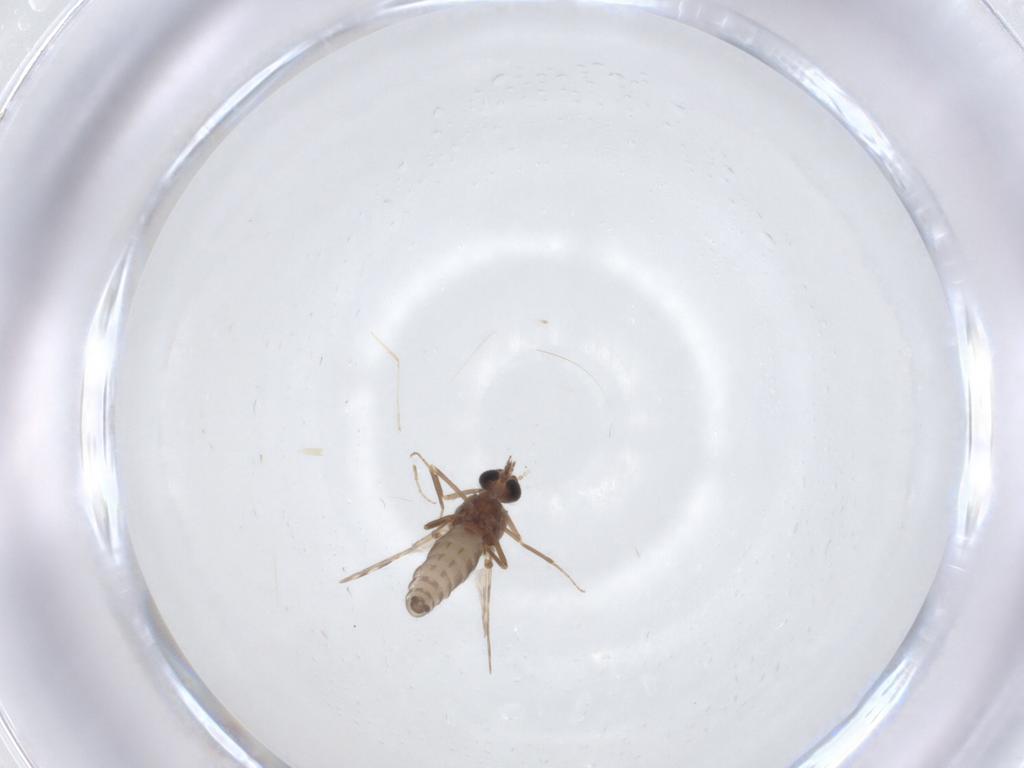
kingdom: Animalia
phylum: Arthropoda
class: Insecta
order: Diptera
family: Ceratopogonidae
